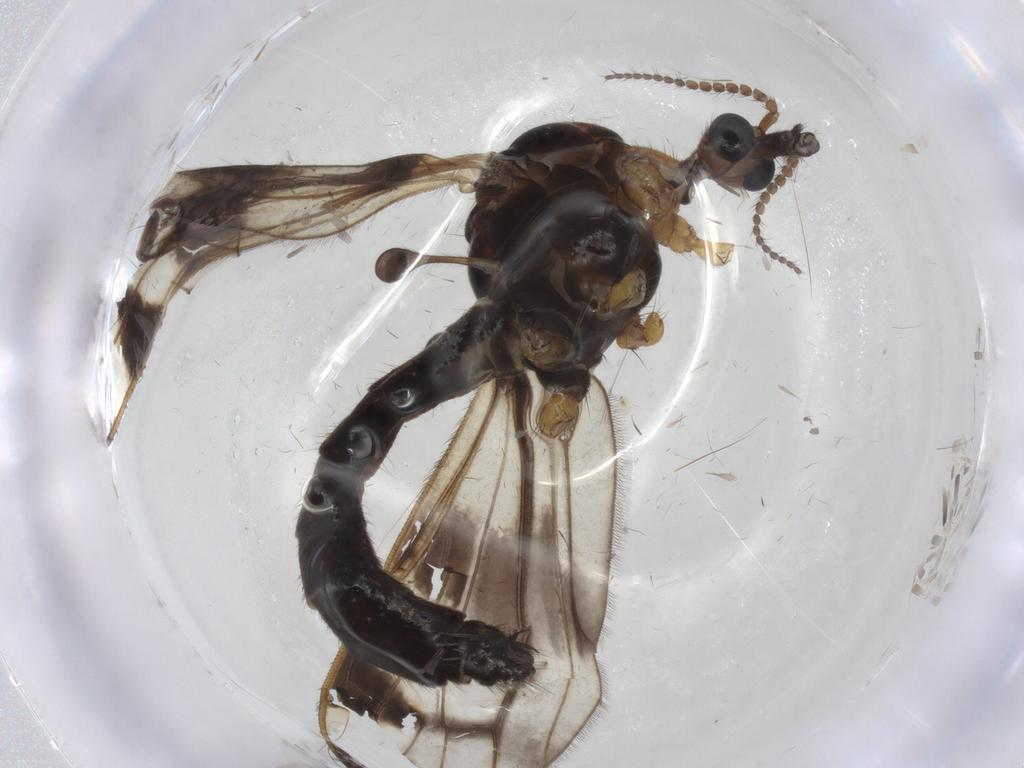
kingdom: Animalia
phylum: Arthropoda
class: Insecta
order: Diptera
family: Limoniidae
